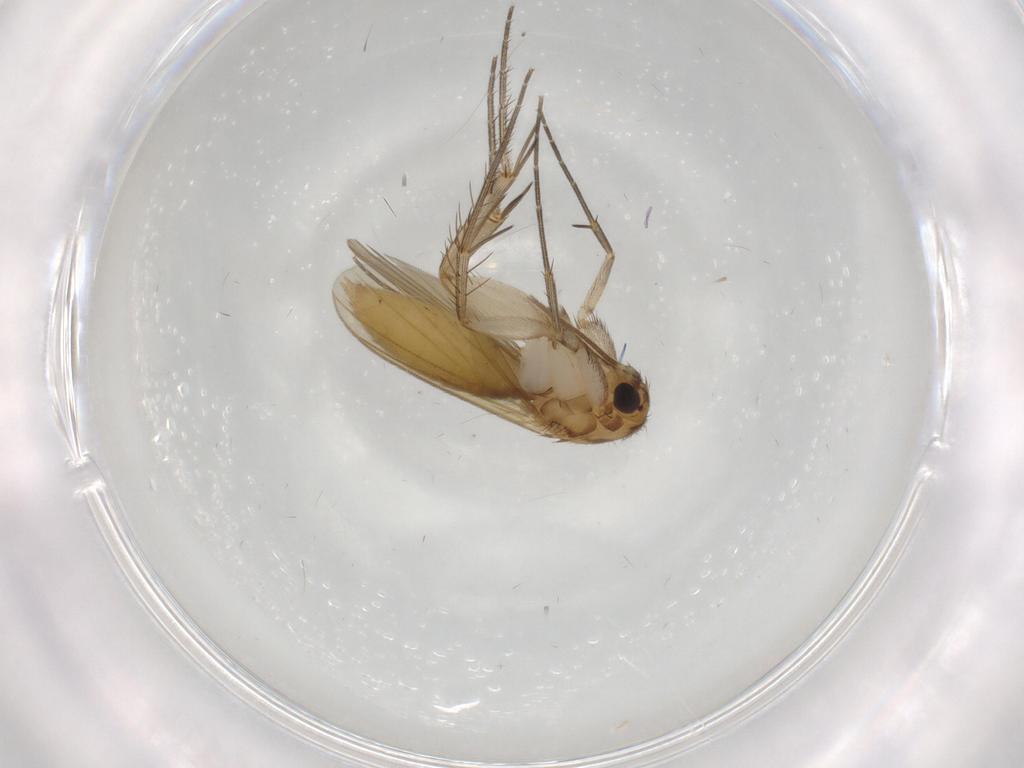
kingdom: Animalia
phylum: Arthropoda
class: Insecta
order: Diptera
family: Mycetophilidae
